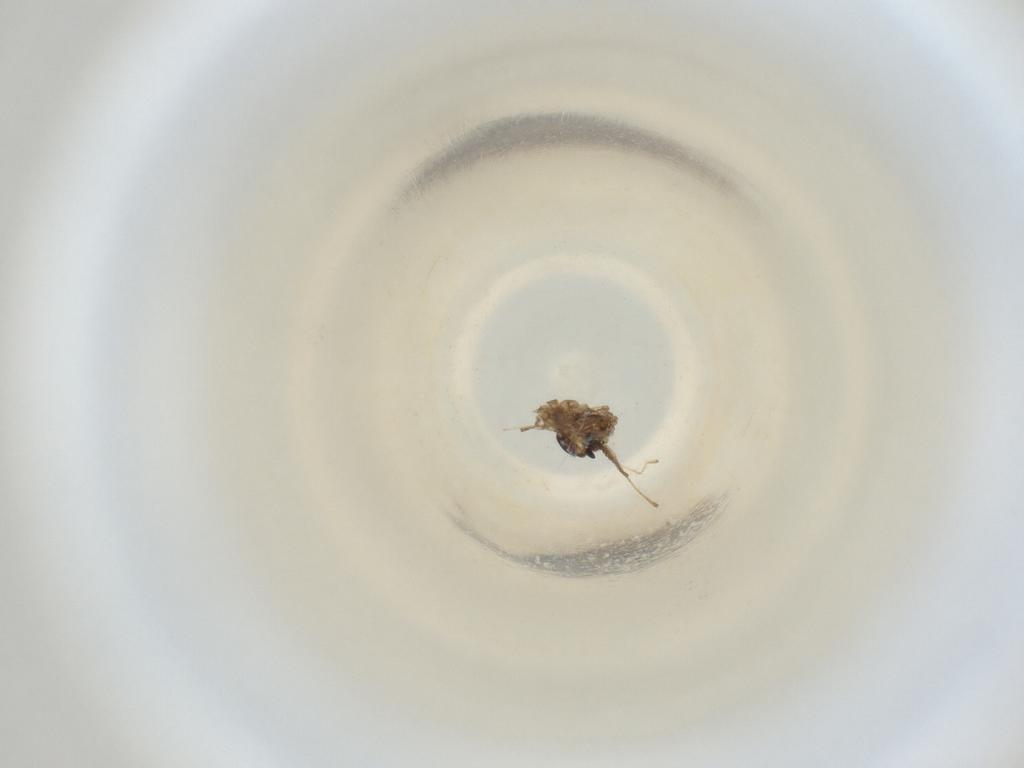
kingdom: Animalia
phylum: Arthropoda
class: Insecta
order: Diptera
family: Cecidomyiidae
